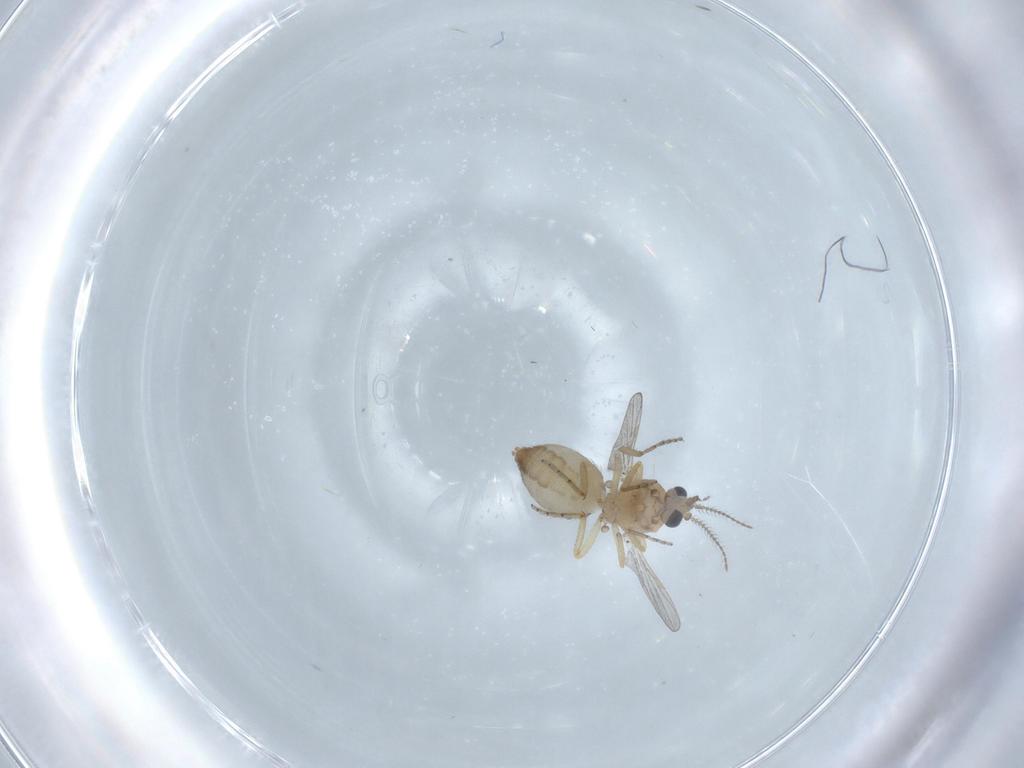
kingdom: Animalia
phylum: Arthropoda
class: Insecta
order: Diptera
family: Ceratopogonidae
